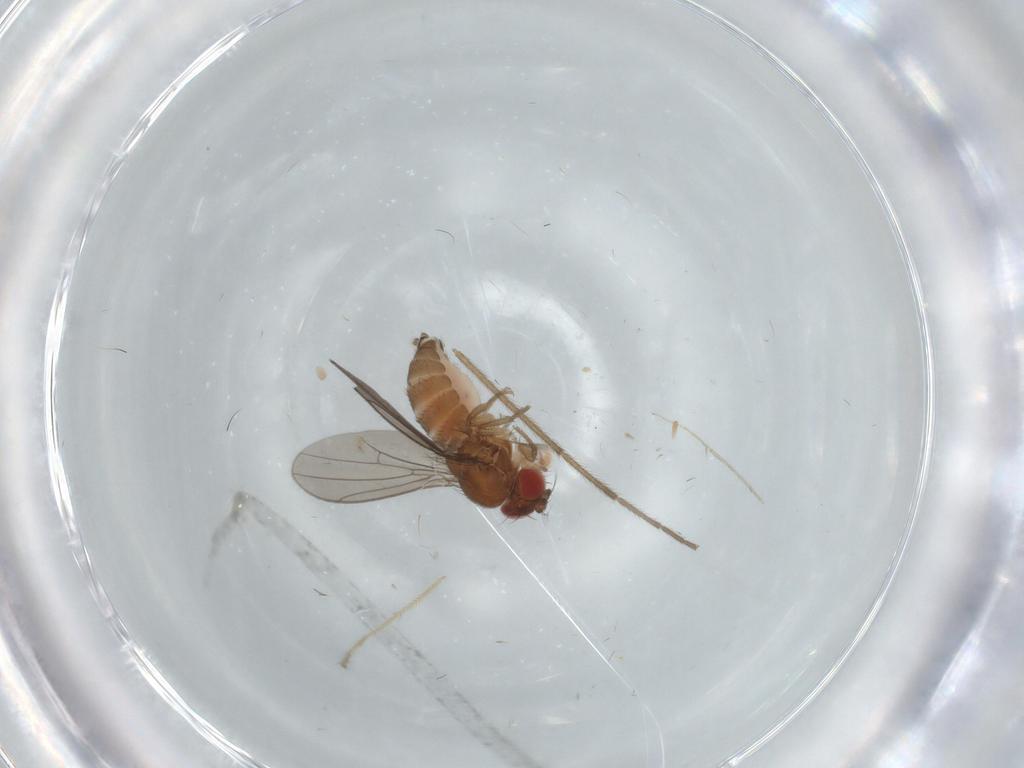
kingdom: Animalia
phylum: Arthropoda
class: Insecta
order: Diptera
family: Drosophilidae
